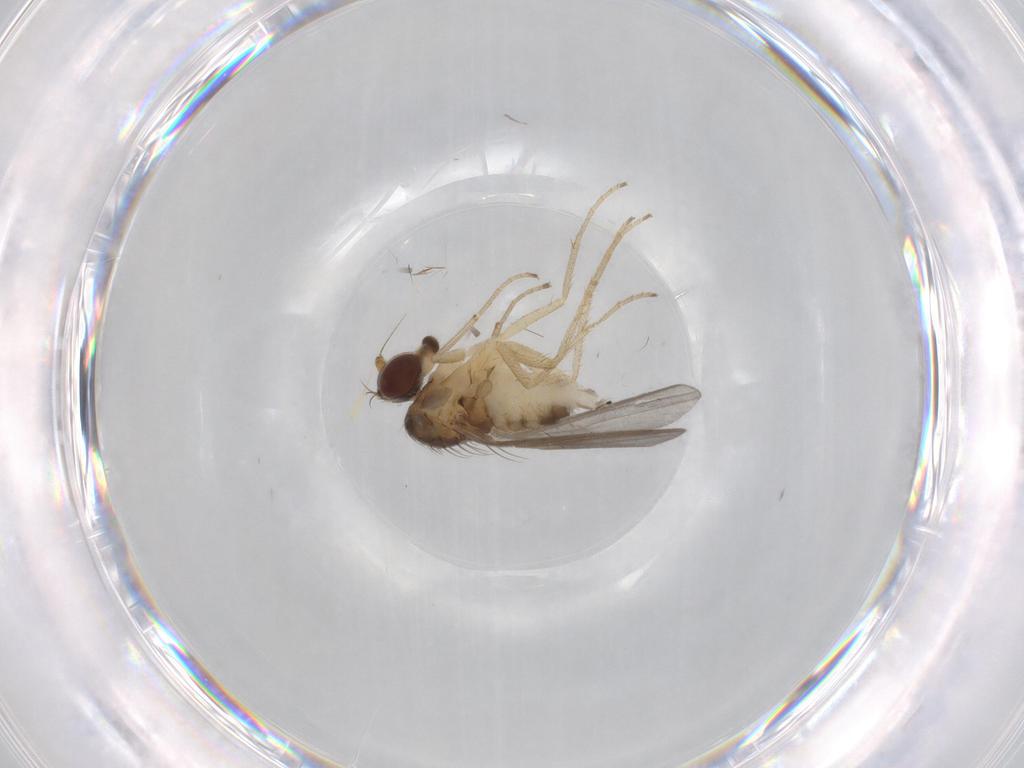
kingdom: Animalia
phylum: Arthropoda
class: Insecta
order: Diptera
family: Dolichopodidae
